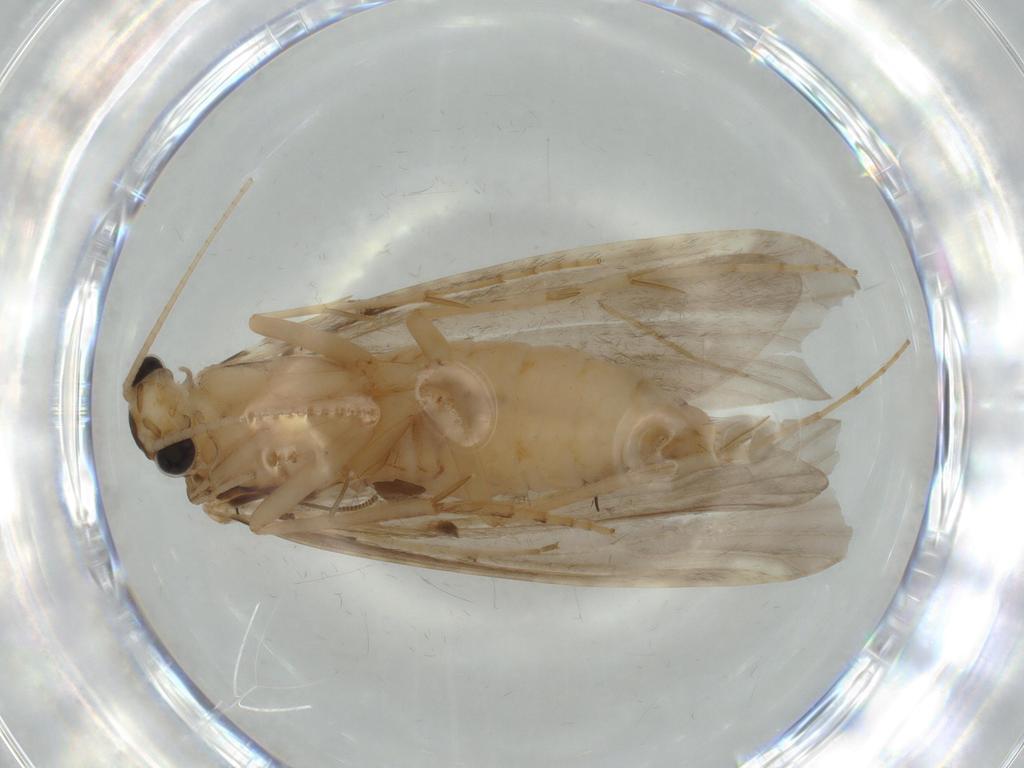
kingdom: Animalia
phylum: Arthropoda
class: Insecta
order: Trichoptera
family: Ecnomidae
